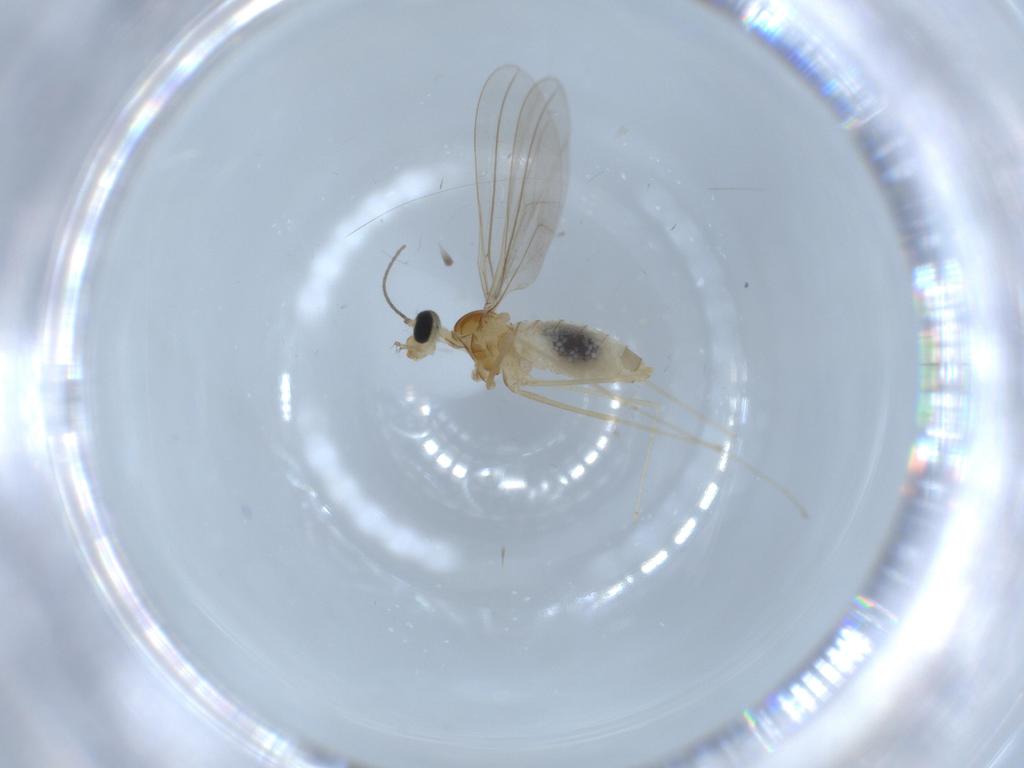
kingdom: Animalia
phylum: Arthropoda
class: Insecta
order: Diptera
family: Cecidomyiidae
